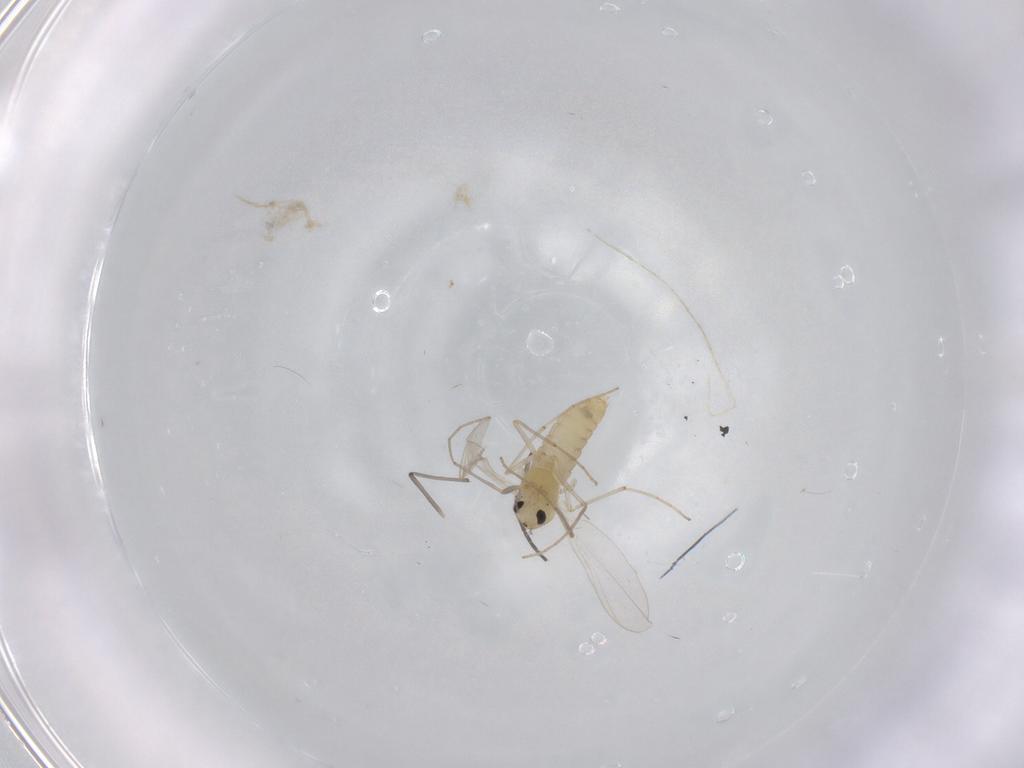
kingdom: Animalia
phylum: Arthropoda
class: Insecta
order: Diptera
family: Chironomidae
